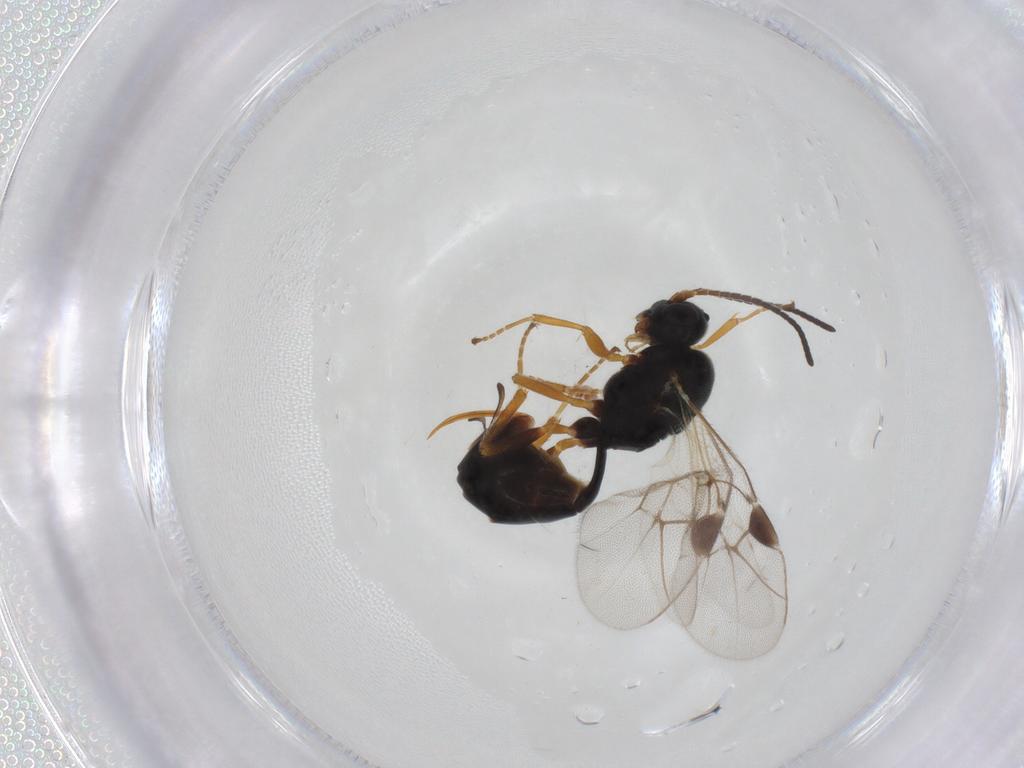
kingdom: Animalia
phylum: Arthropoda
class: Insecta
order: Hymenoptera
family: Ichneumonidae
